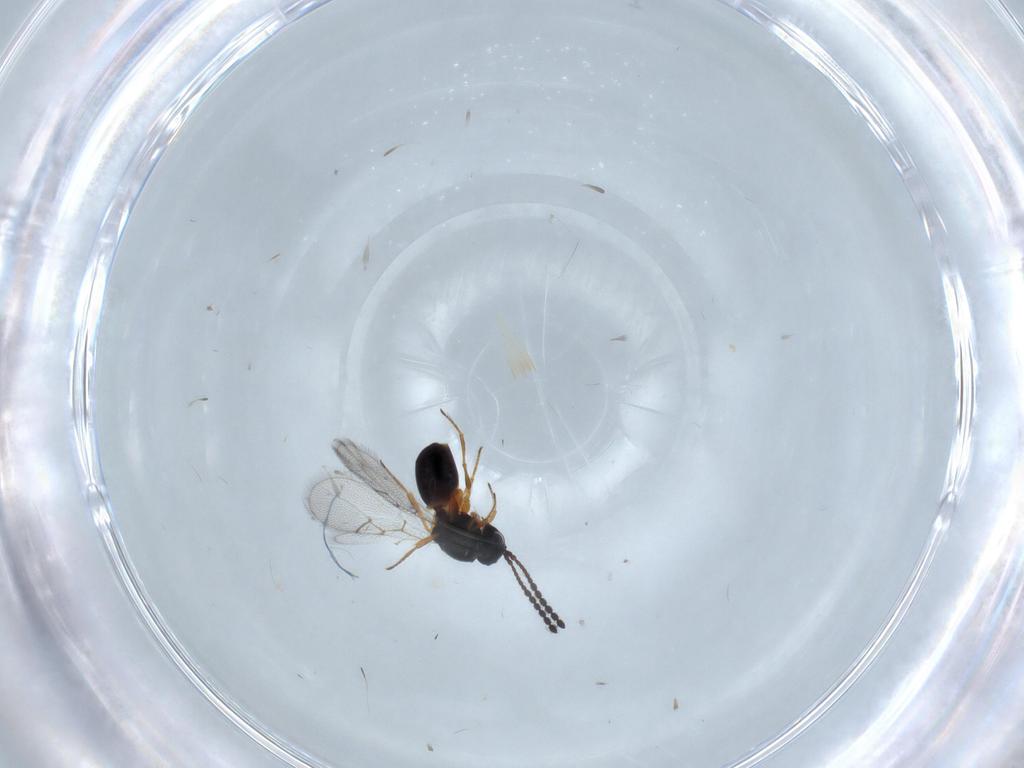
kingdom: Animalia
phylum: Arthropoda
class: Insecta
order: Hymenoptera
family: Figitidae
